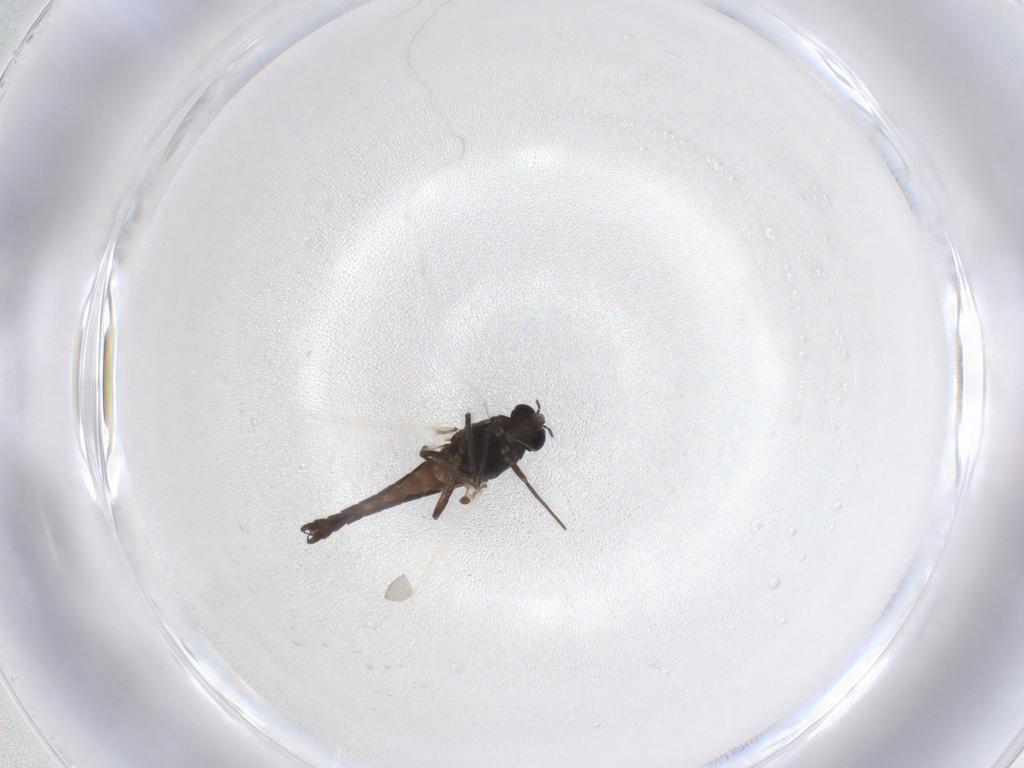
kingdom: Animalia
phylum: Arthropoda
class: Insecta
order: Diptera
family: Chironomidae
